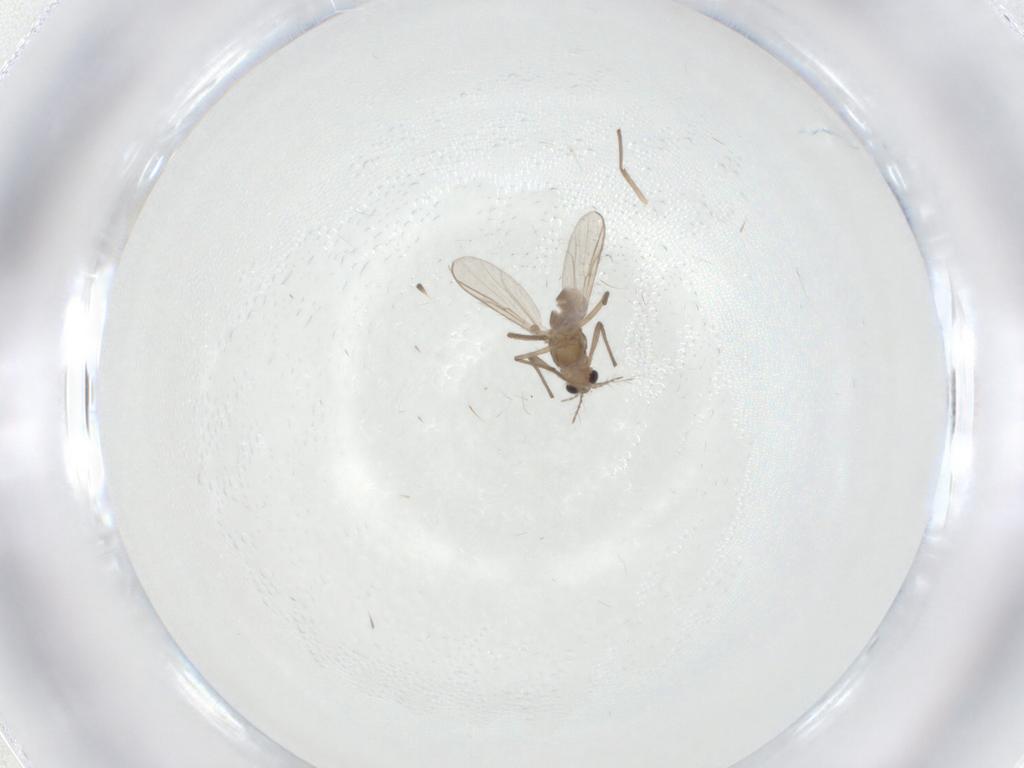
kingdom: Animalia
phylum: Arthropoda
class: Insecta
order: Diptera
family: Chironomidae
